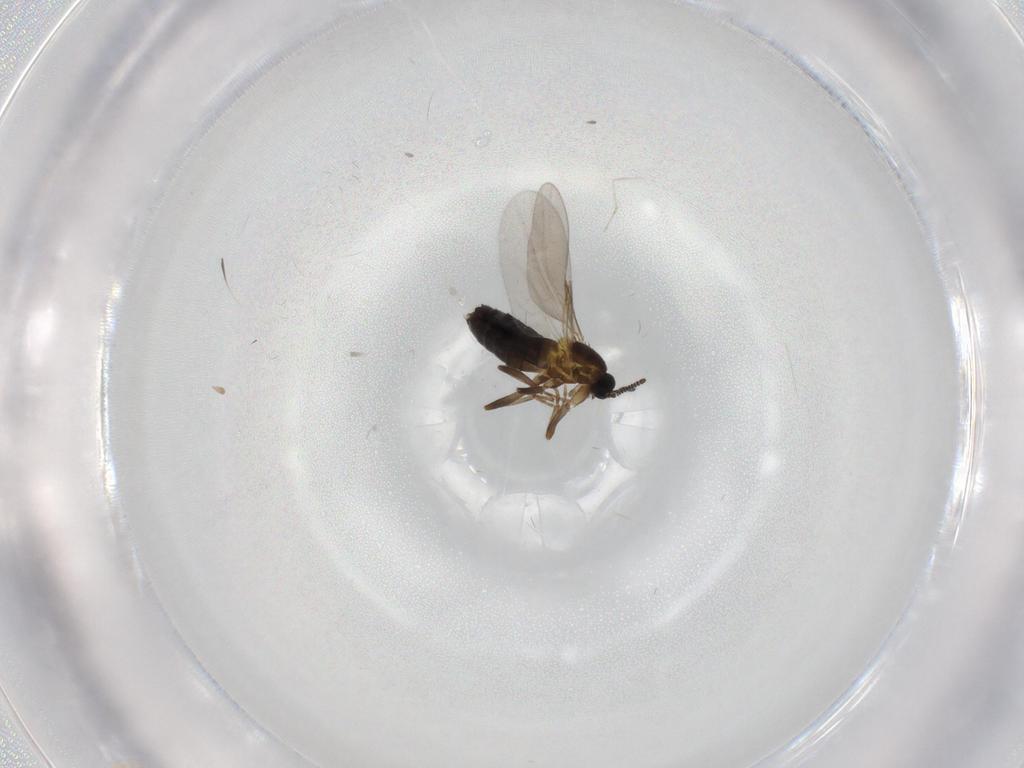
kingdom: Animalia
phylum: Arthropoda
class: Insecta
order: Diptera
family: Scatopsidae
